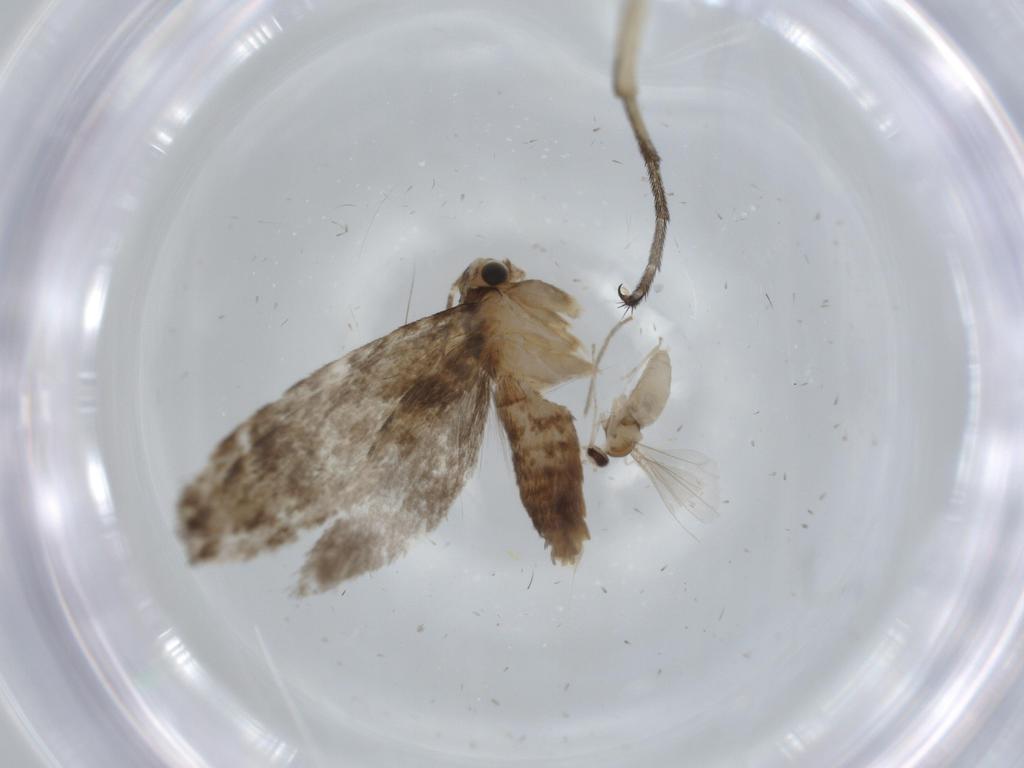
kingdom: Animalia
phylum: Arthropoda
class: Insecta
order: Lepidoptera
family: Tineidae
